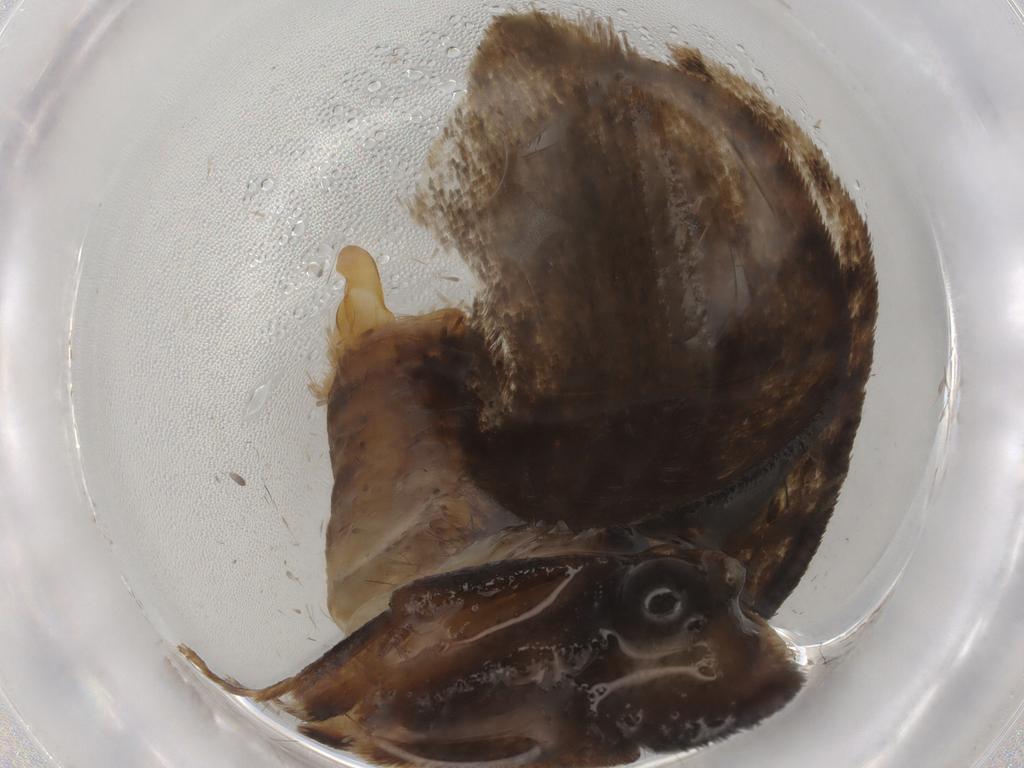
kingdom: Animalia
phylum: Arthropoda
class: Insecta
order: Lepidoptera
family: Tineidae
